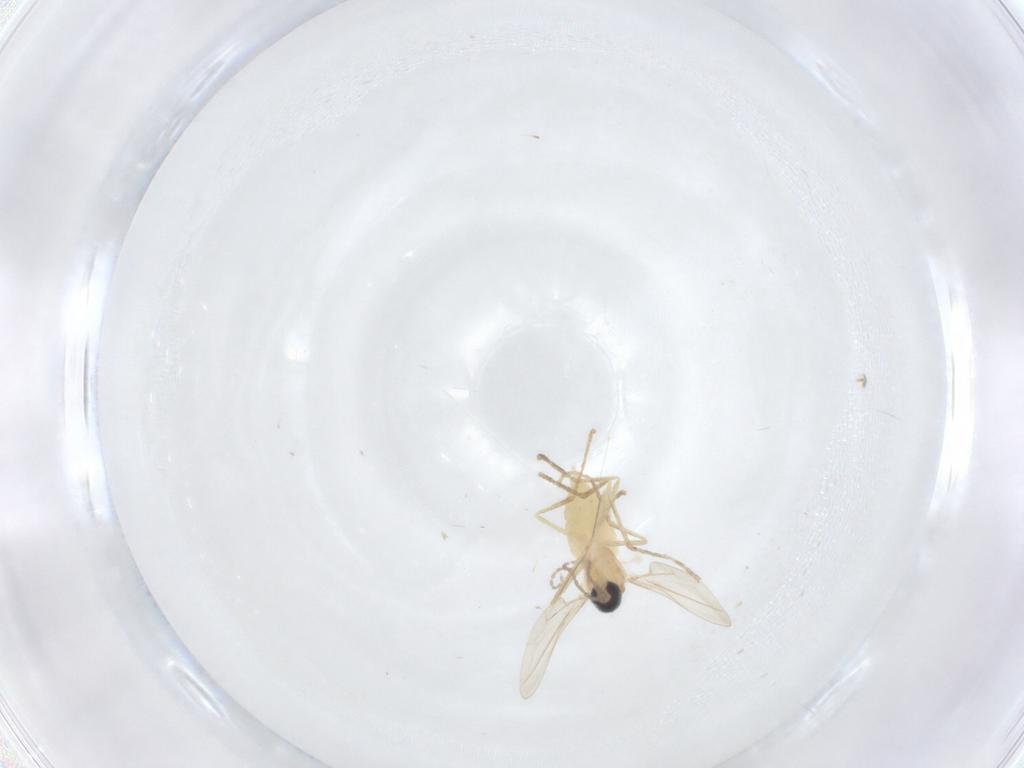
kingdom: Animalia
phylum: Arthropoda
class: Insecta
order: Diptera
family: Cecidomyiidae
